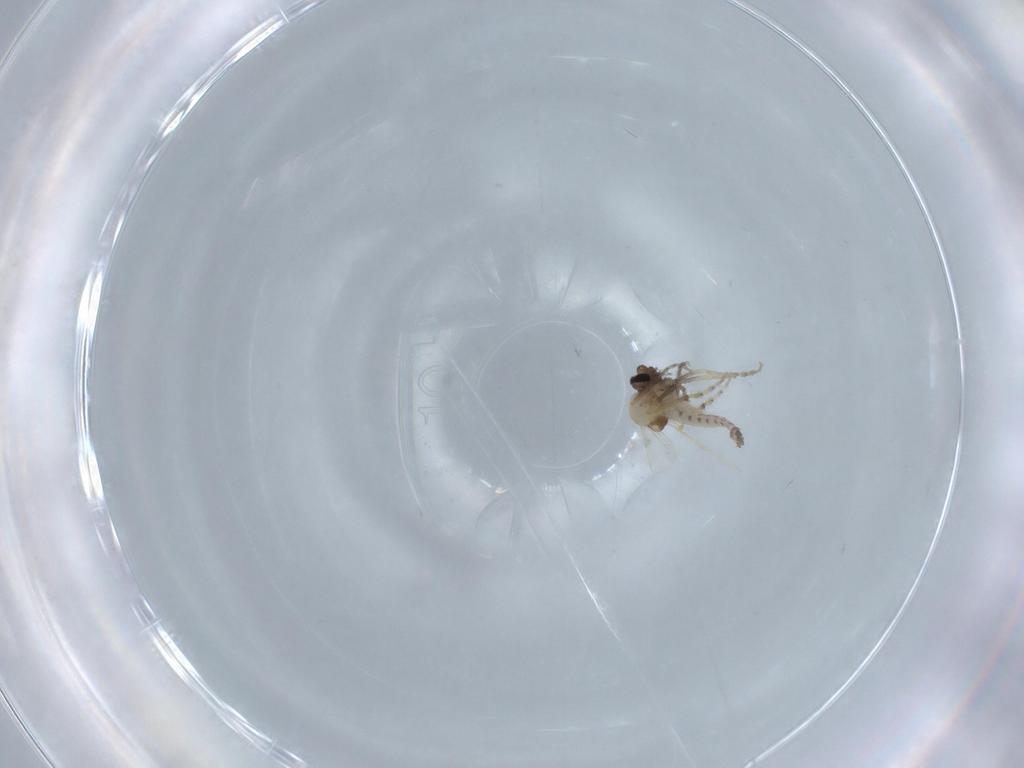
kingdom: Animalia
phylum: Arthropoda
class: Insecta
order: Diptera
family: Ceratopogonidae
